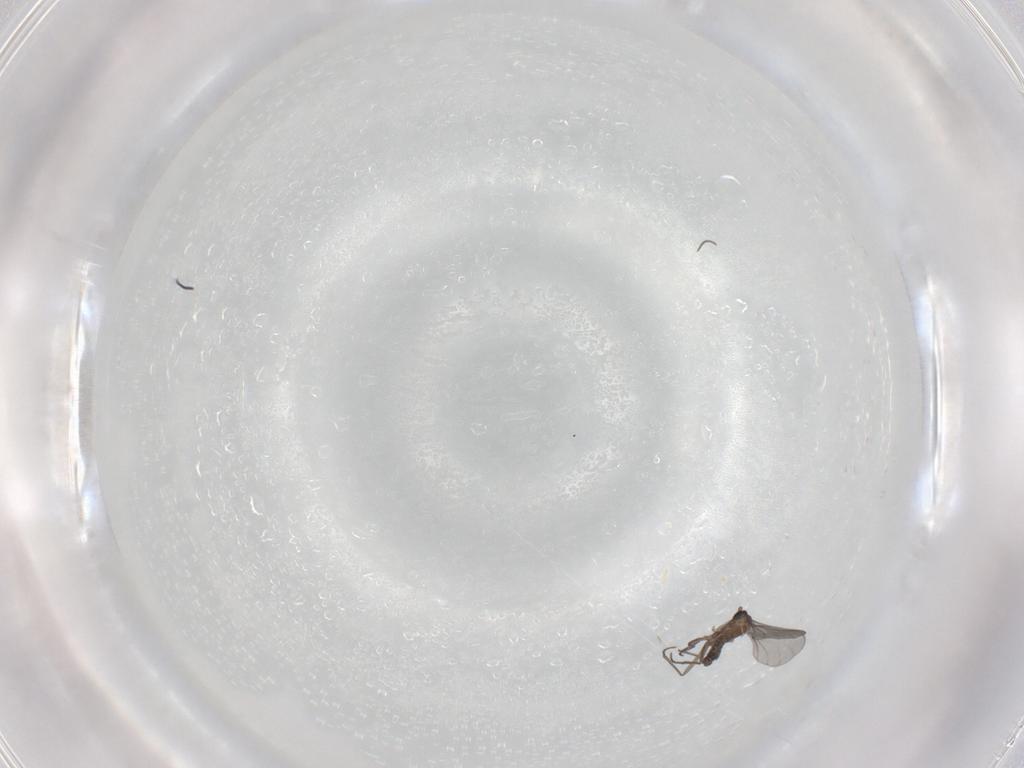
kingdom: Animalia
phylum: Arthropoda
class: Insecta
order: Diptera
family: Sciaridae
